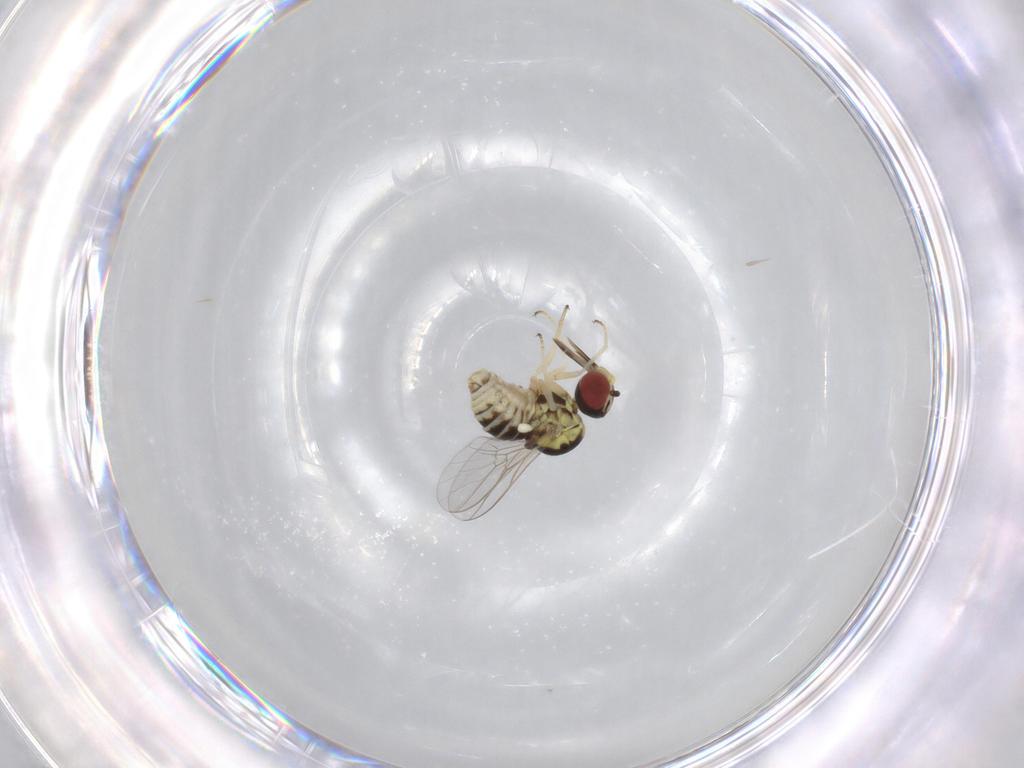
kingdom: Animalia
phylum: Arthropoda
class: Insecta
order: Diptera
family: Bombyliidae
